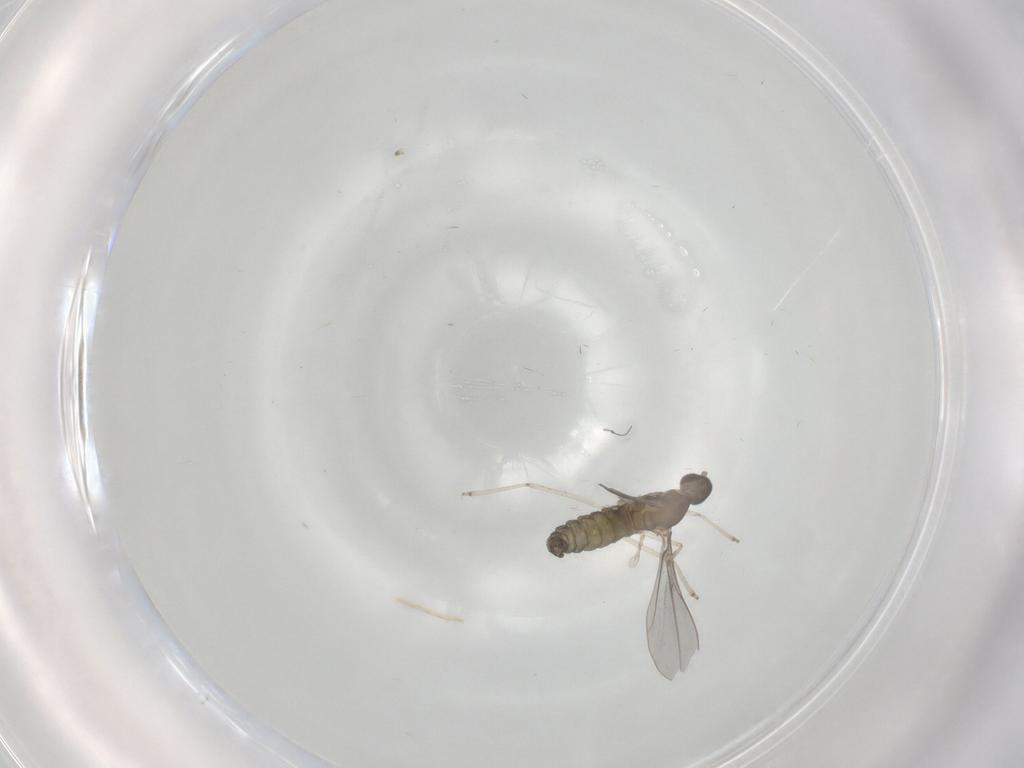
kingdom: Animalia
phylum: Arthropoda
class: Insecta
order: Diptera
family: Cecidomyiidae
